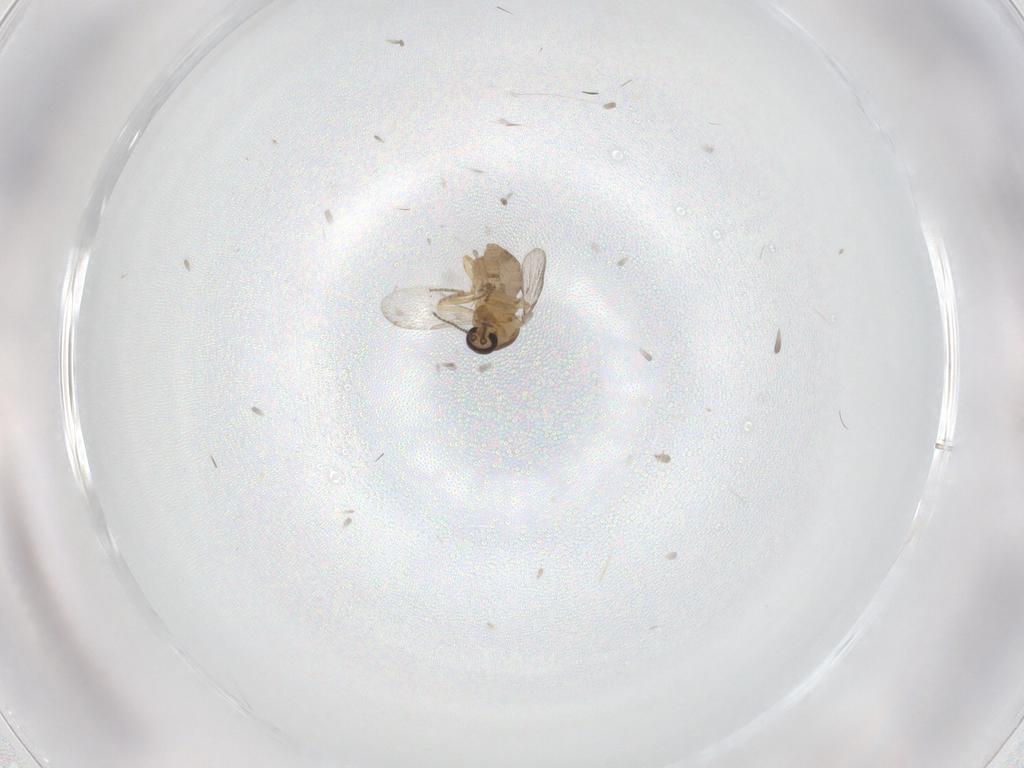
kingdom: Animalia
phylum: Arthropoda
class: Insecta
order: Diptera
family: Ceratopogonidae
